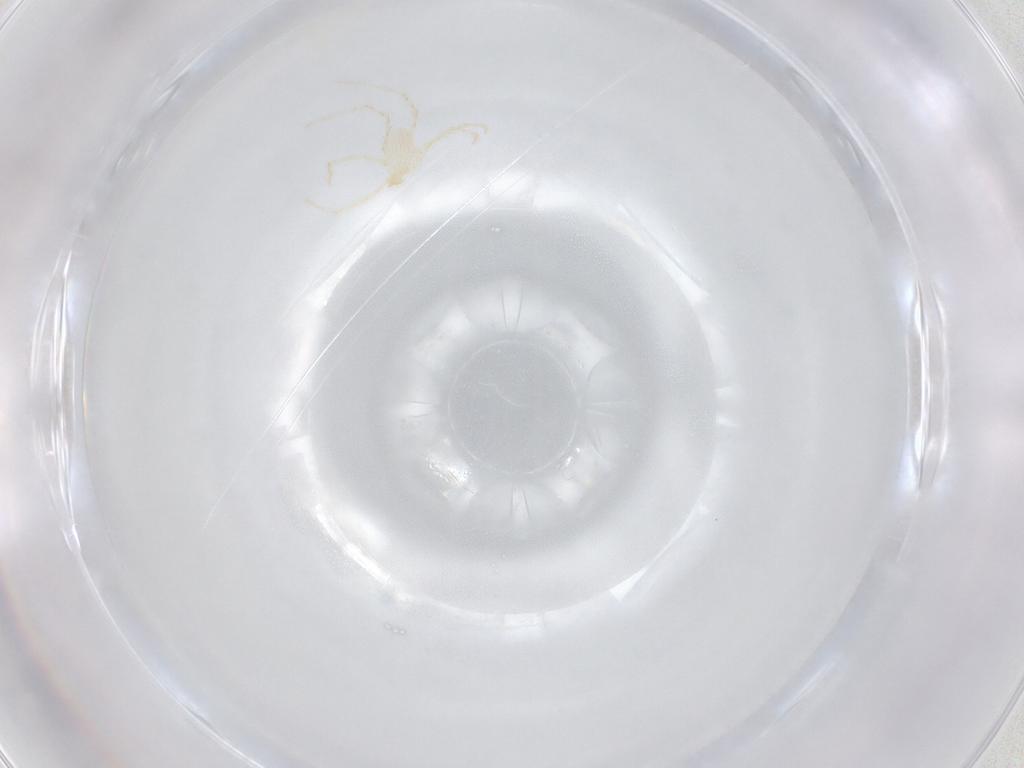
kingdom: Animalia
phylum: Arthropoda
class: Arachnida
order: Trombidiformes
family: Erythraeidae
